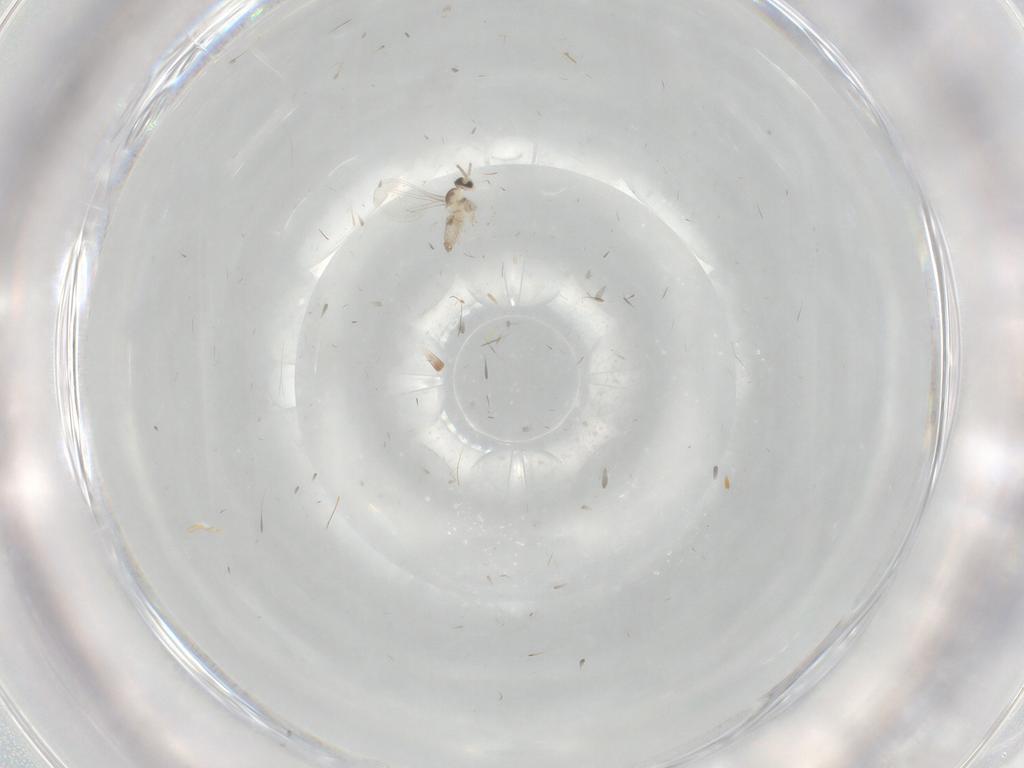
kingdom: Animalia
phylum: Arthropoda
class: Insecta
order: Diptera
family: Cecidomyiidae
